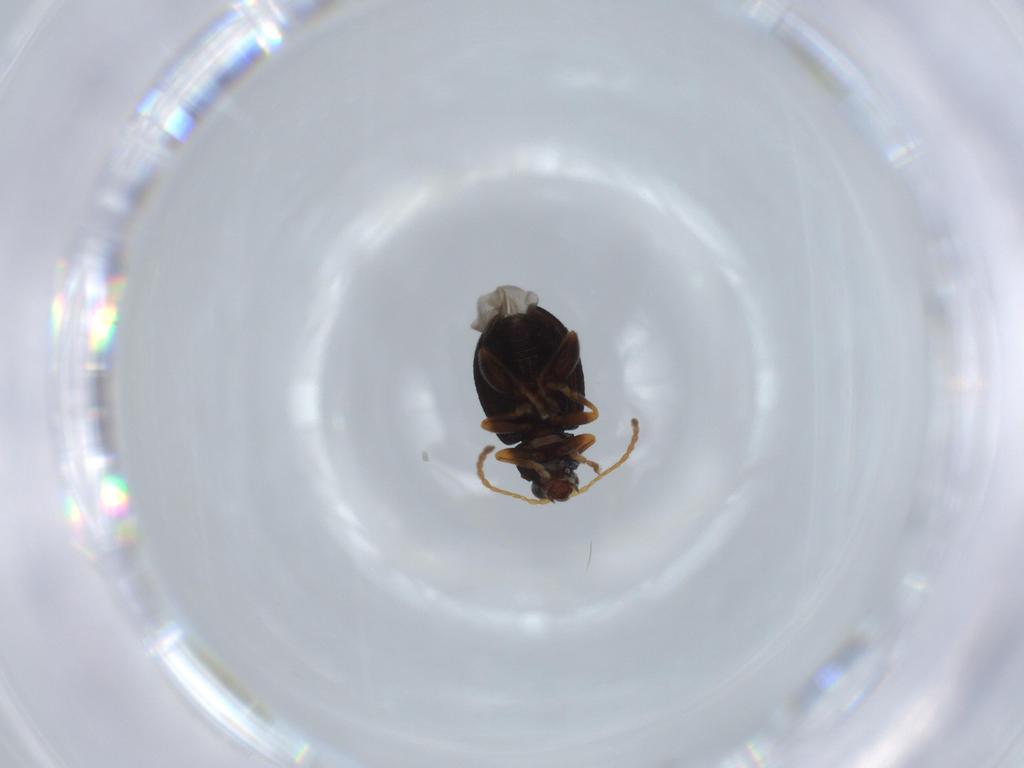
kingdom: Animalia
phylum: Arthropoda
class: Insecta
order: Coleoptera
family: Chrysomelidae
